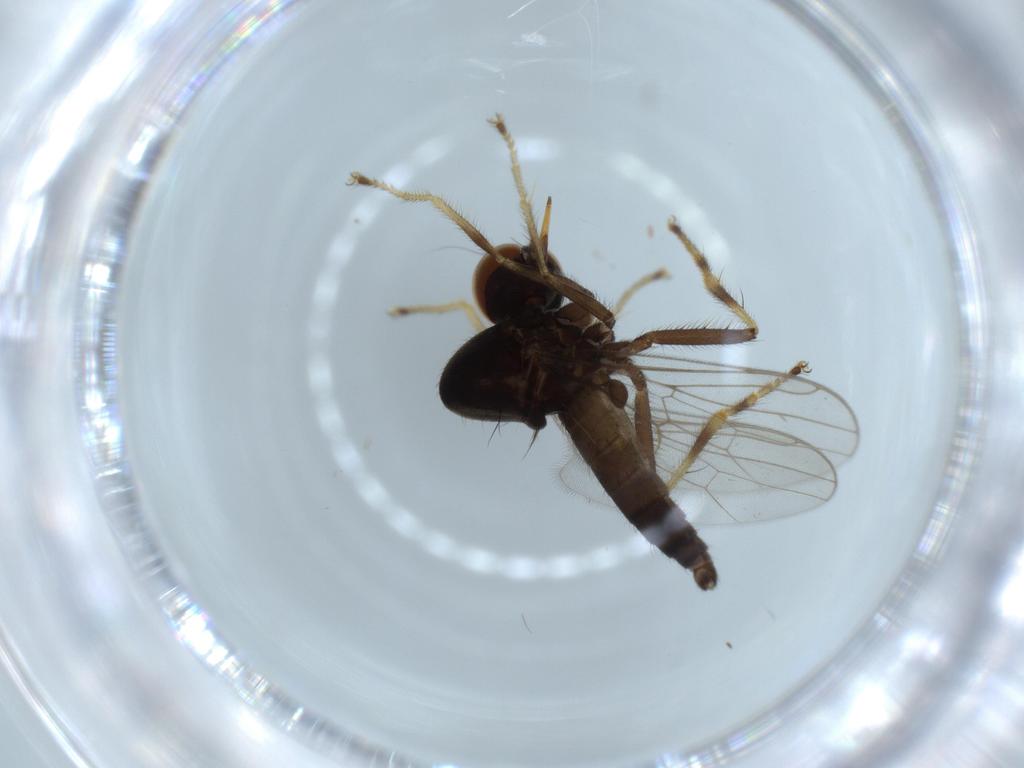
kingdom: Animalia
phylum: Arthropoda
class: Insecta
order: Diptera
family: Hybotidae
